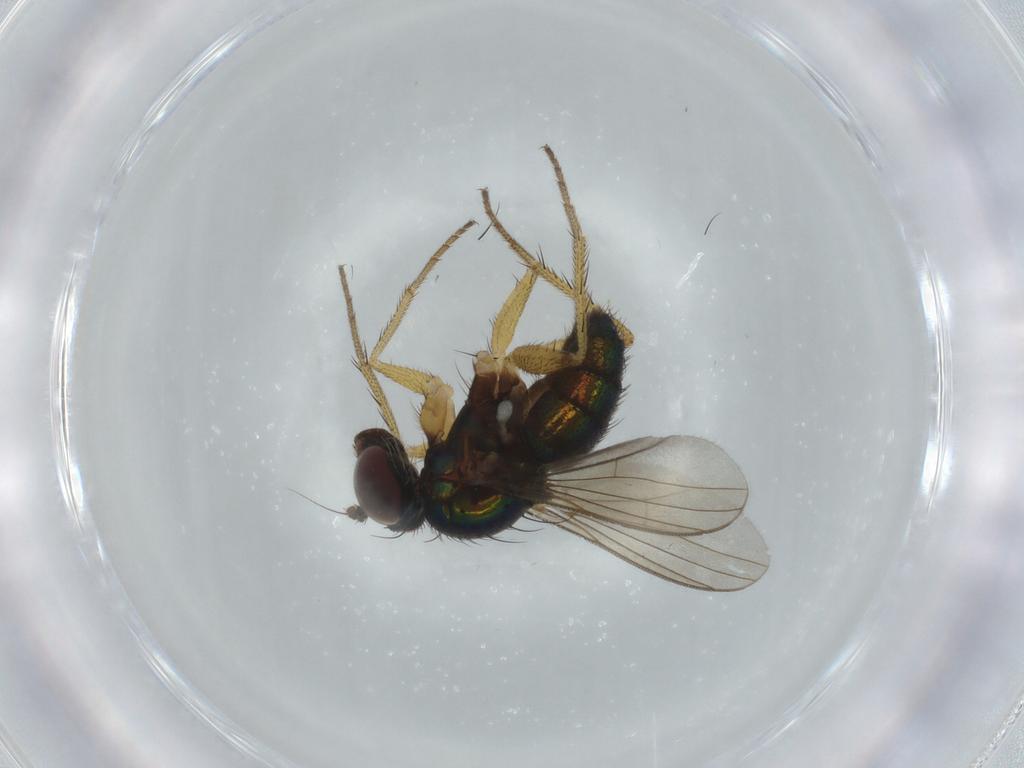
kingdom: Animalia
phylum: Arthropoda
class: Insecta
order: Diptera
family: Dolichopodidae
